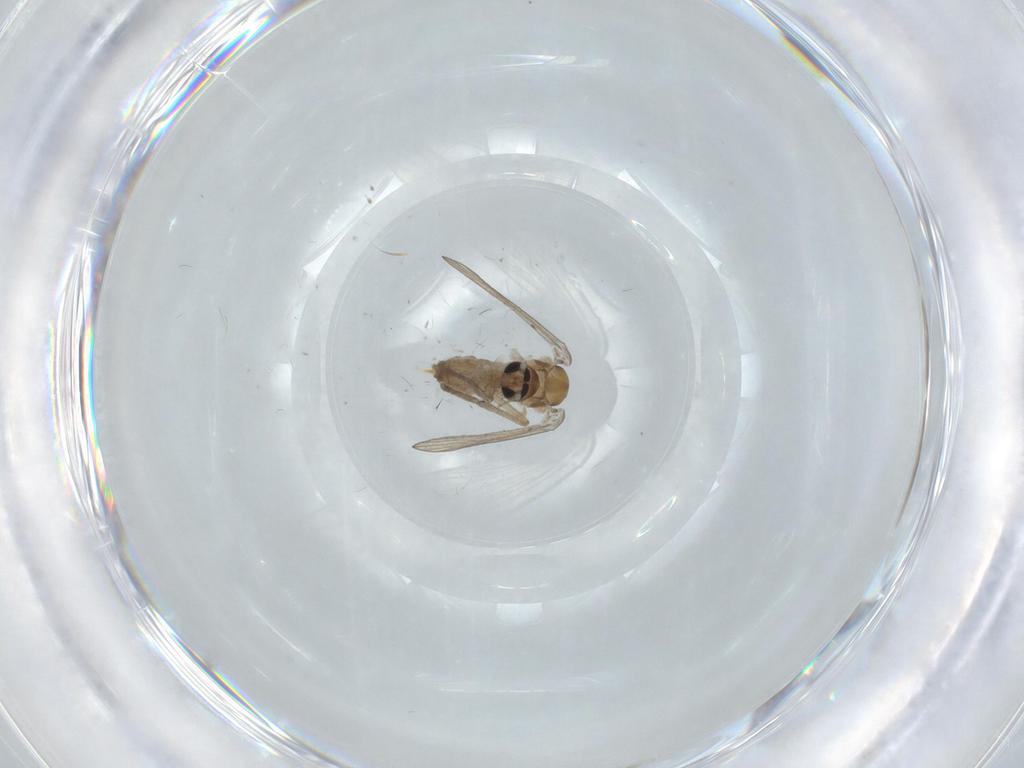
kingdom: Animalia
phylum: Arthropoda
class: Insecta
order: Diptera
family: Psychodidae
